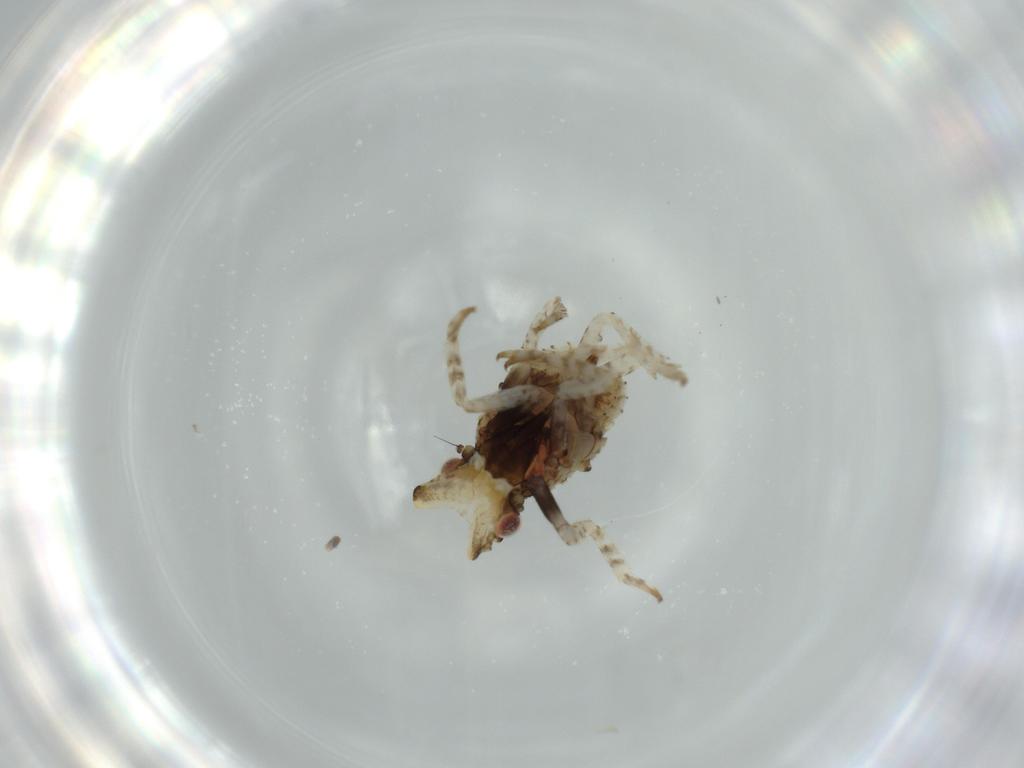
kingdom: Animalia
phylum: Arthropoda
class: Insecta
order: Hemiptera
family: Fulgoridae
